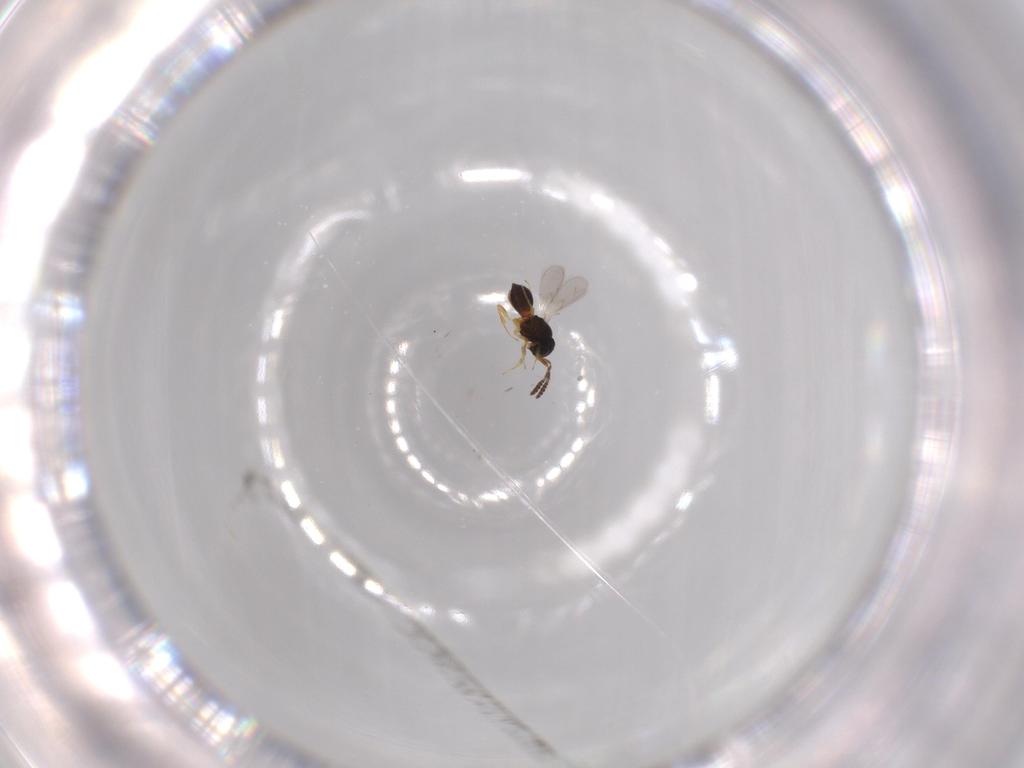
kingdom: Animalia
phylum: Arthropoda
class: Insecta
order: Hymenoptera
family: Scelionidae
